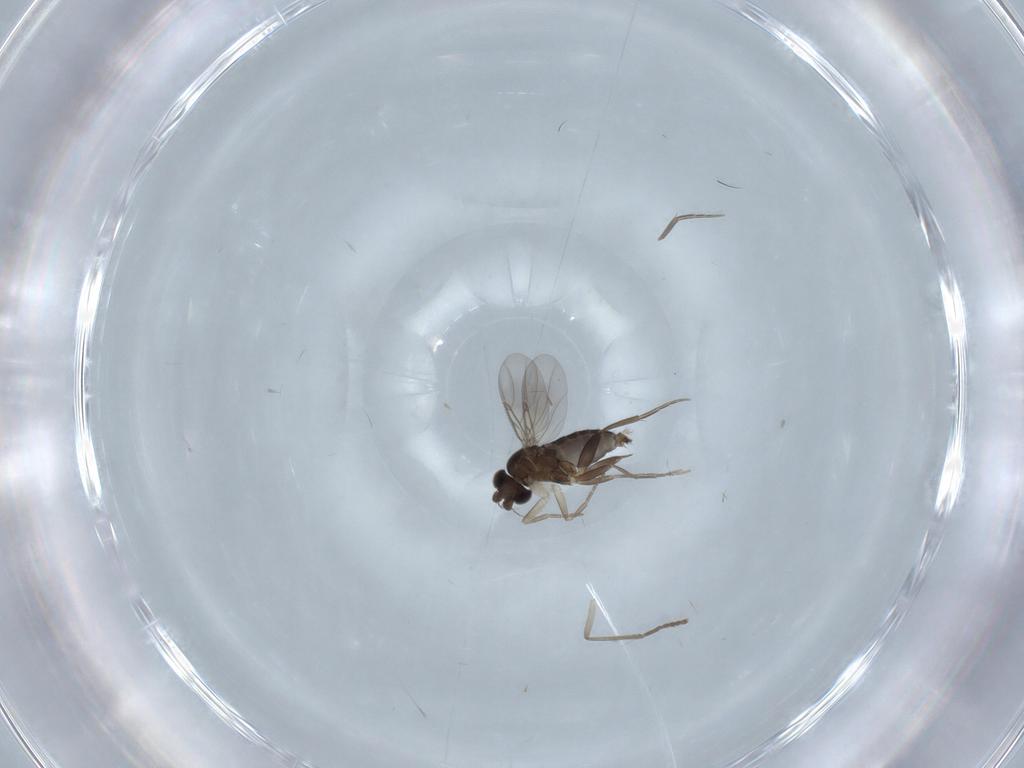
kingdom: Animalia
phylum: Arthropoda
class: Insecta
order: Diptera
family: Phoridae
